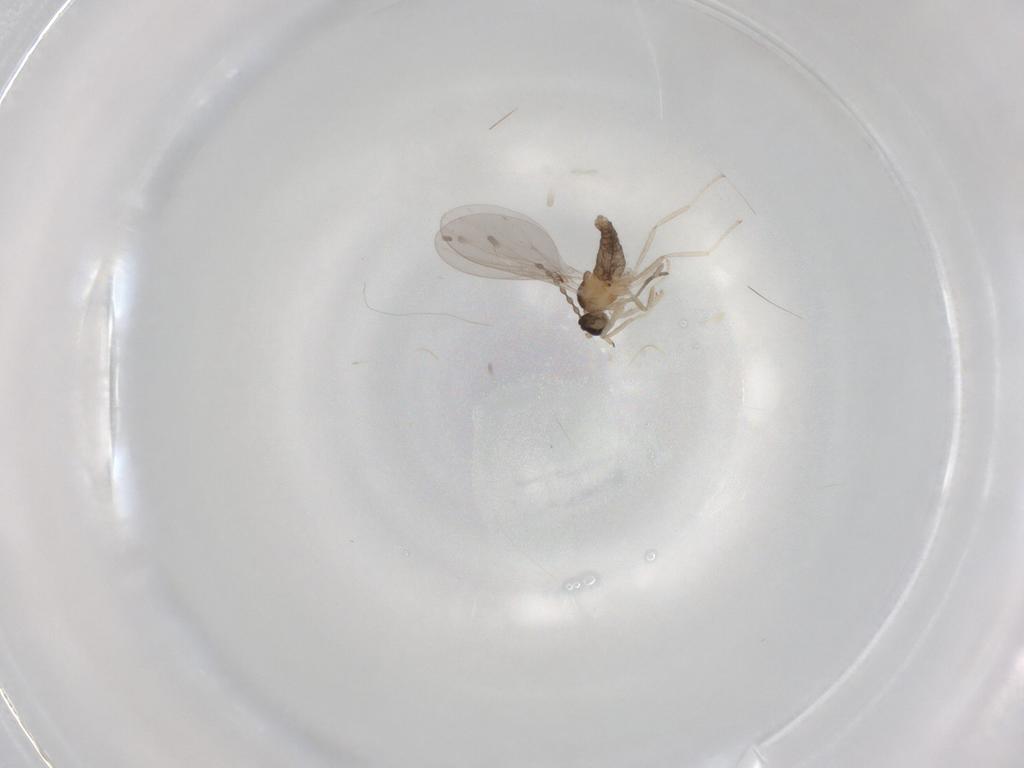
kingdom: Animalia
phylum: Arthropoda
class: Insecta
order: Diptera
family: Cecidomyiidae
